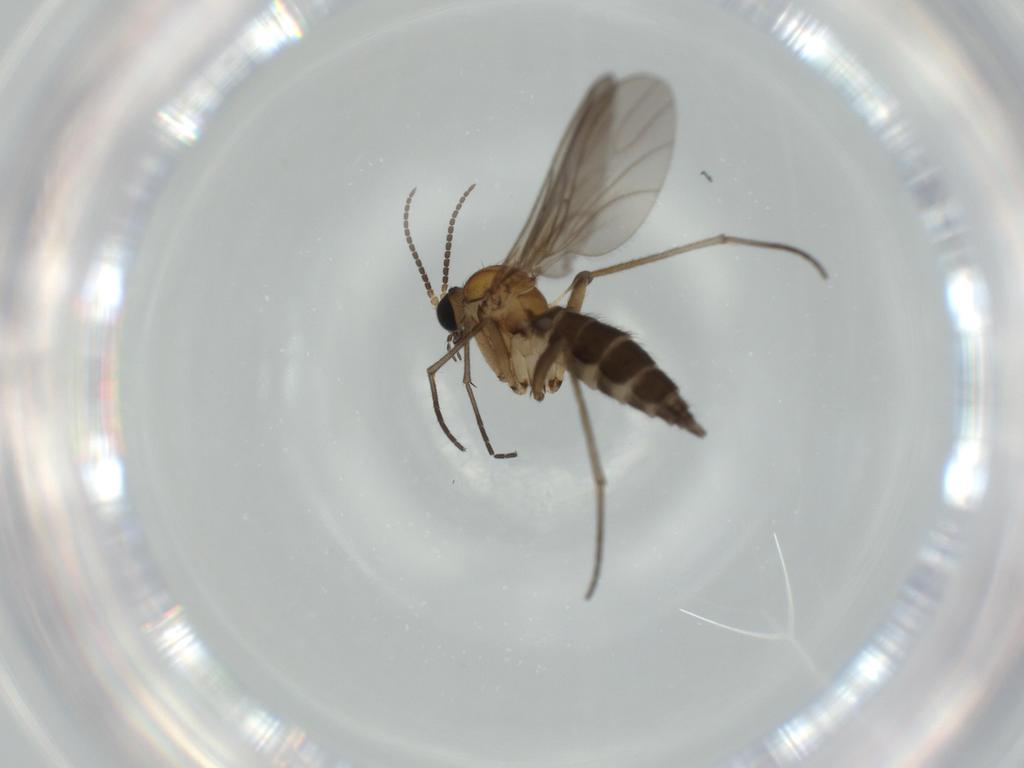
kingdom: Animalia
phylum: Arthropoda
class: Insecta
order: Diptera
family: Sciaridae
